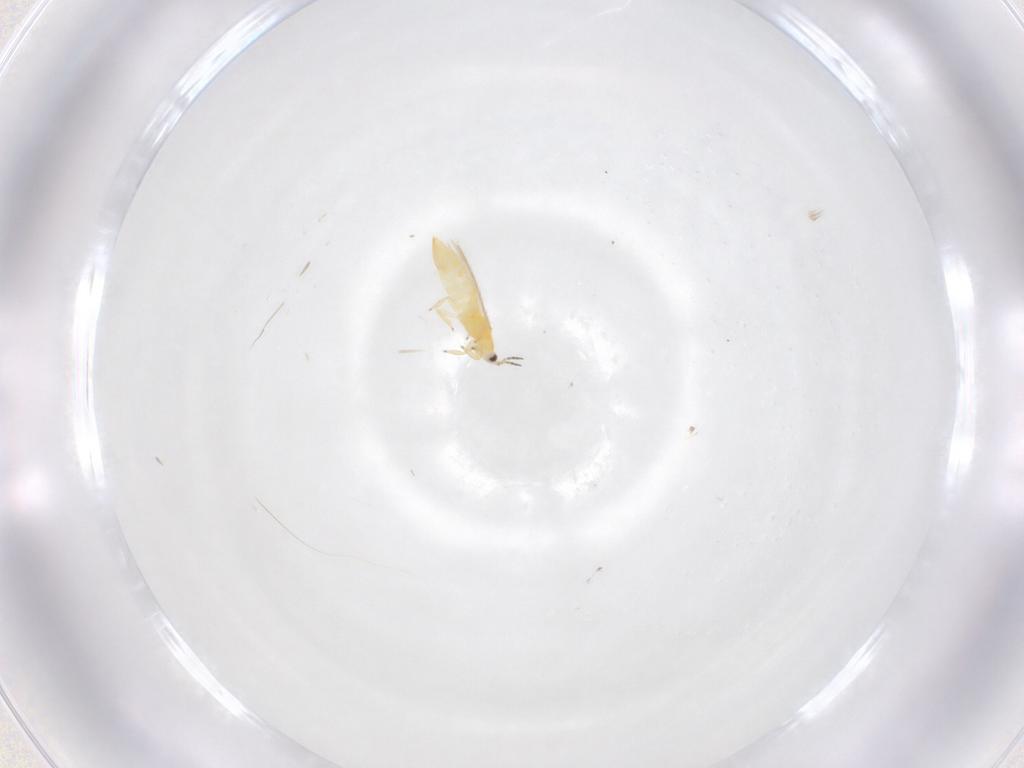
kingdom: Animalia
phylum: Arthropoda
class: Insecta
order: Thysanoptera
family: Melanthripidae
